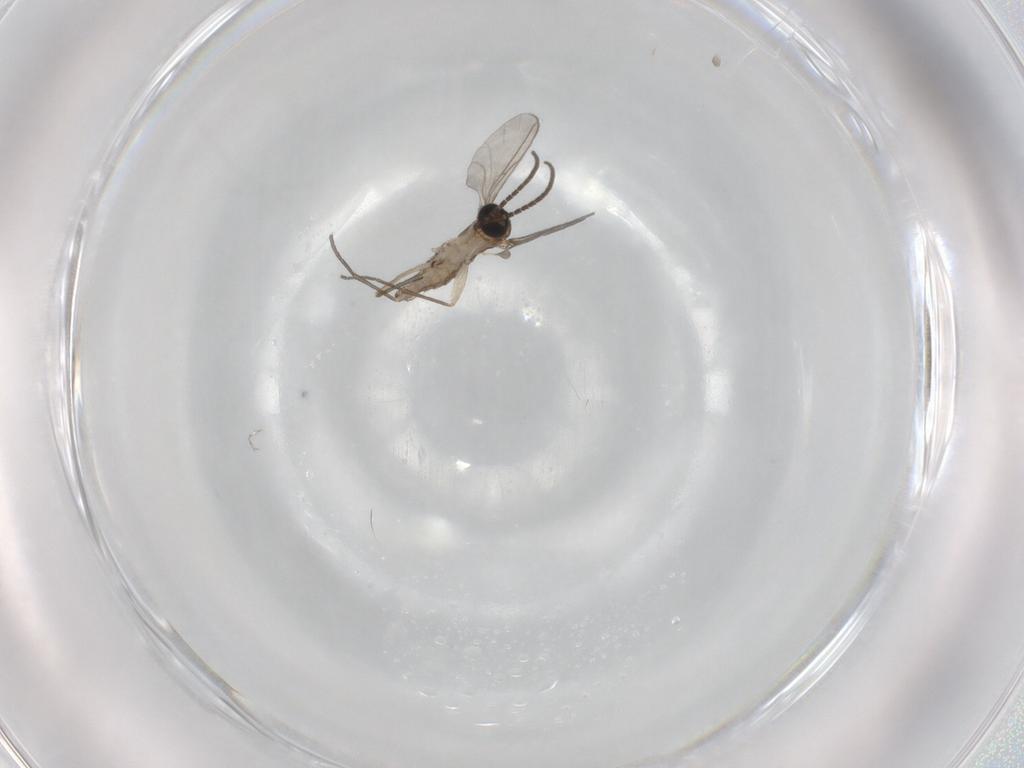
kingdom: Animalia
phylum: Arthropoda
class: Insecta
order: Diptera
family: Sciaridae
